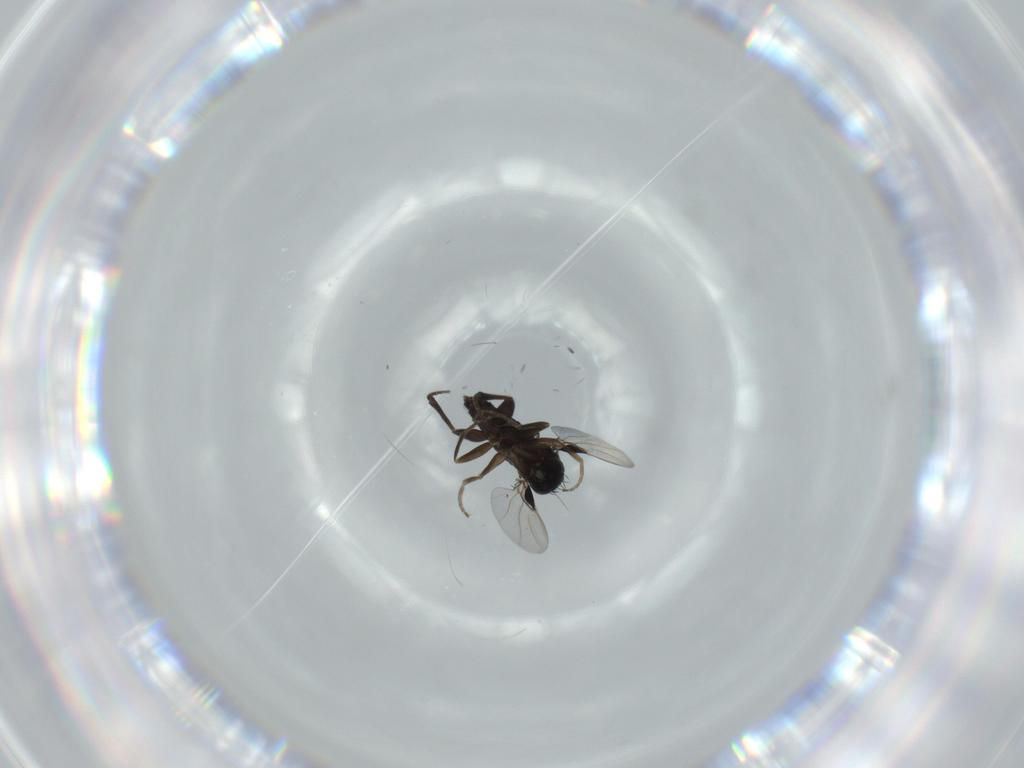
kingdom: Animalia
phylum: Arthropoda
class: Insecta
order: Diptera
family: Phoridae
